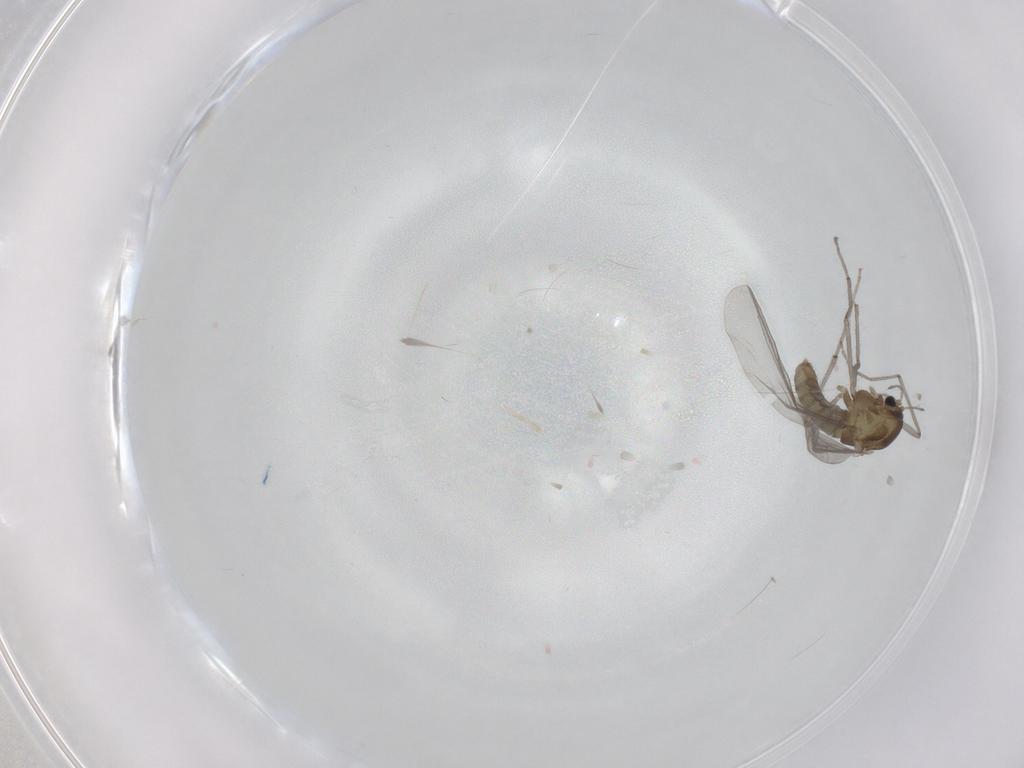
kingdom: Animalia
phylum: Arthropoda
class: Insecta
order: Diptera
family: Chironomidae
